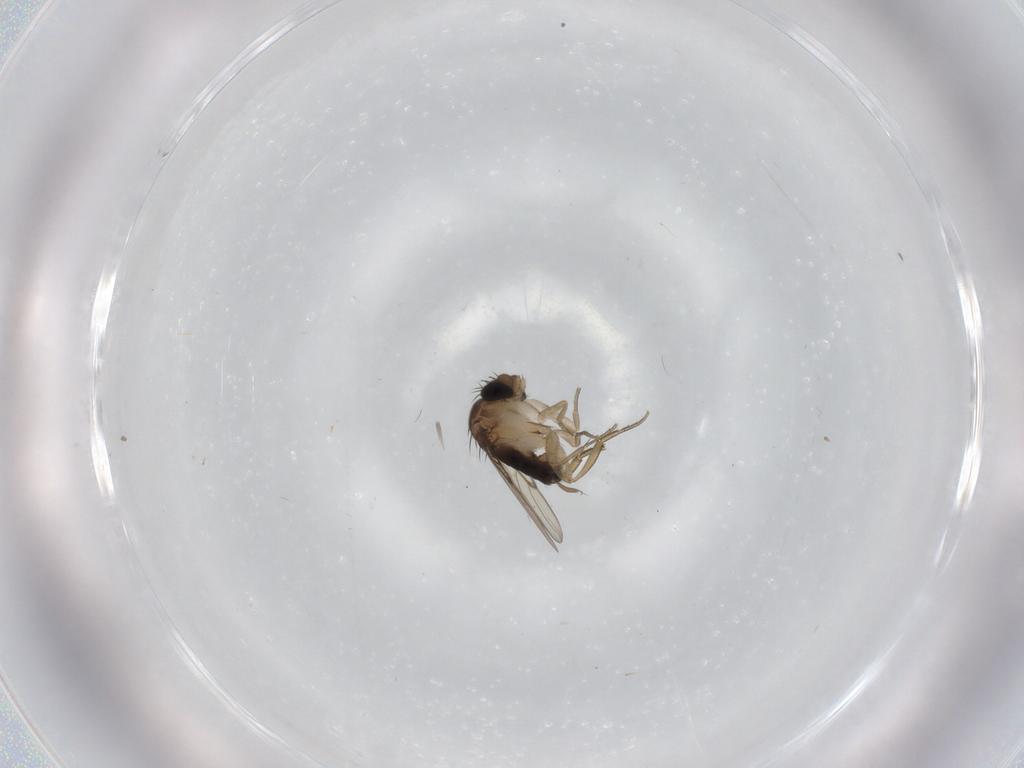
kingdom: Animalia
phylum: Arthropoda
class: Insecta
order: Diptera
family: Phoridae
